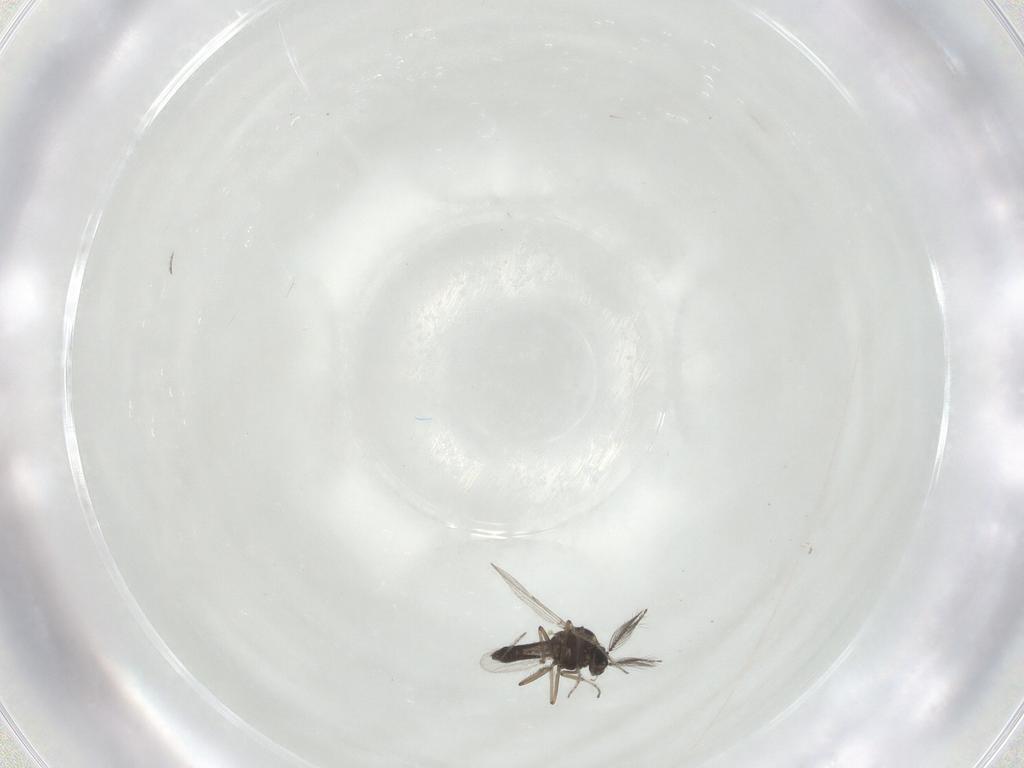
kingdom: Animalia
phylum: Arthropoda
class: Insecta
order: Diptera
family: Ceratopogonidae
